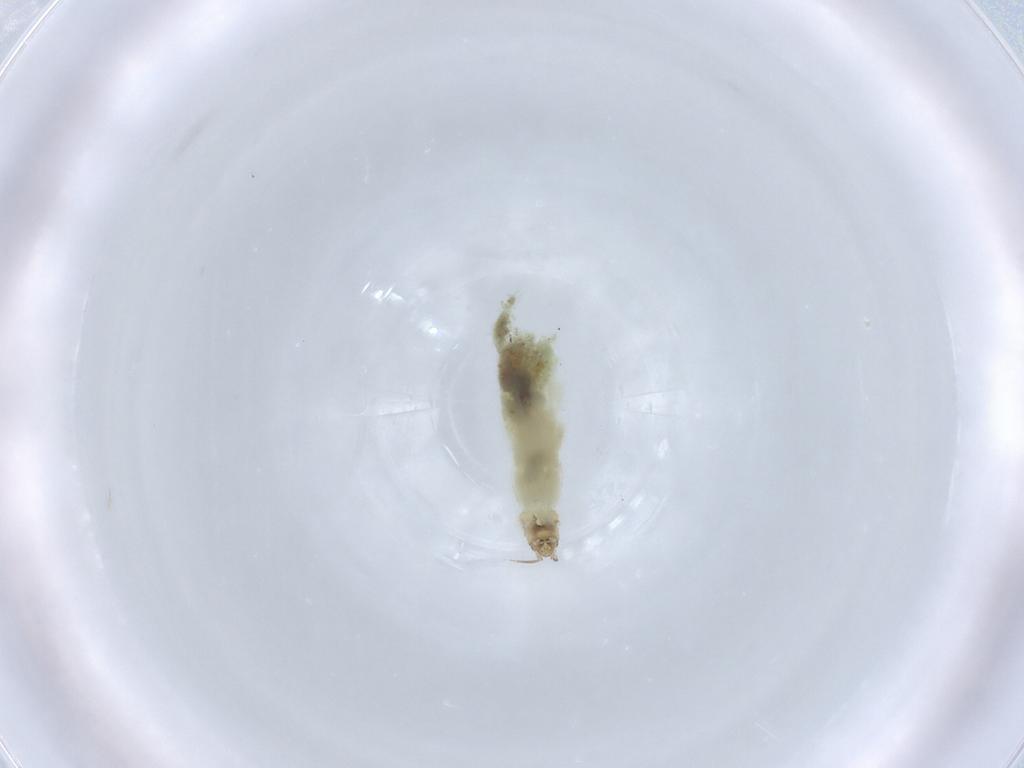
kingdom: Animalia
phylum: Arthropoda
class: Insecta
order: Diptera
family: Chironomidae
